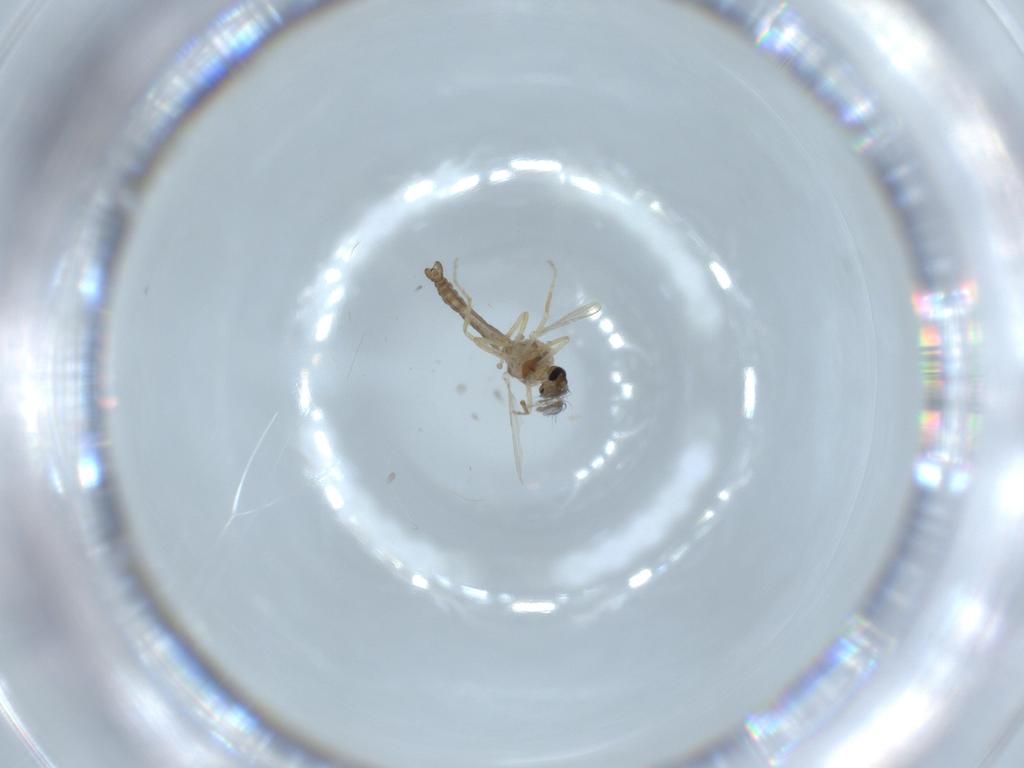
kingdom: Animalia
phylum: Arthropoda
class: Insecta
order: Diptera
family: Ceratopogonidae
